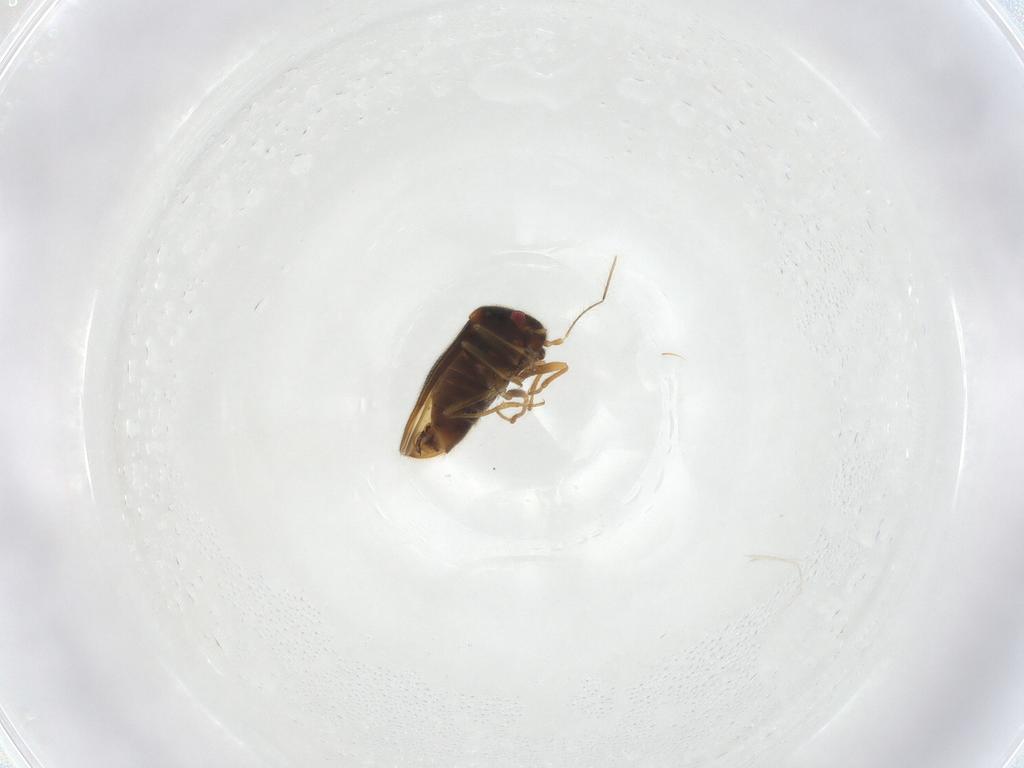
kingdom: Animalia
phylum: Arthropoda
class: Insecta
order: Hemiptera
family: Schizopteridae
